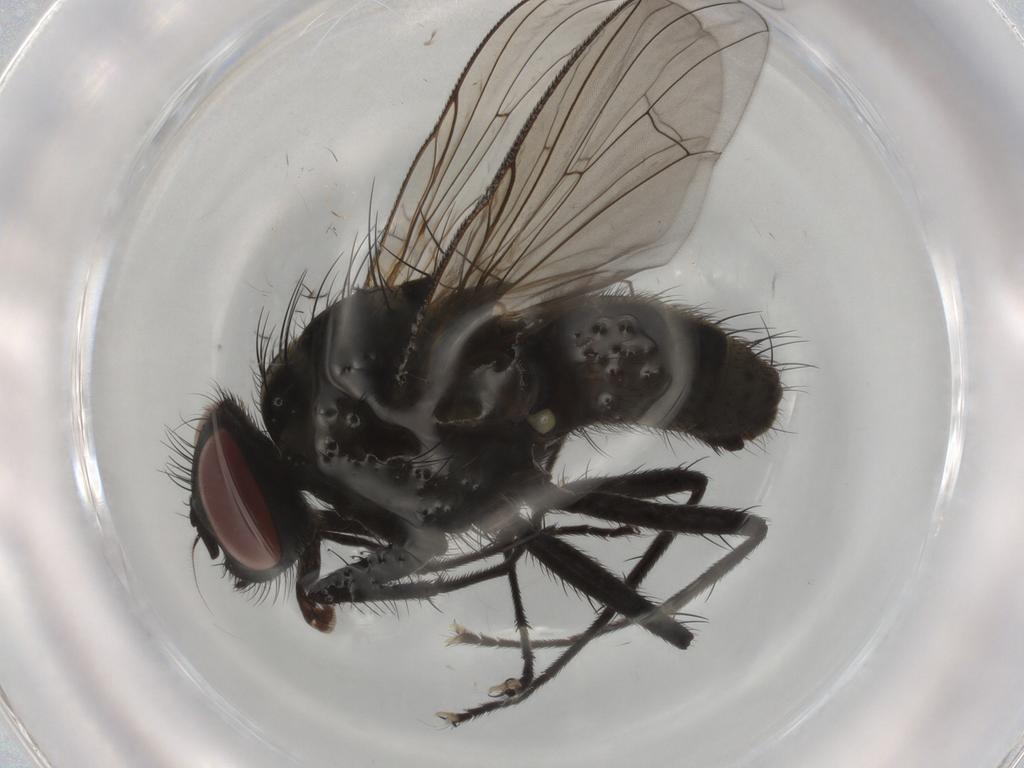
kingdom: Animalia
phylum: Arthropoda
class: Insecta
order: Diptera
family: Muscidae
